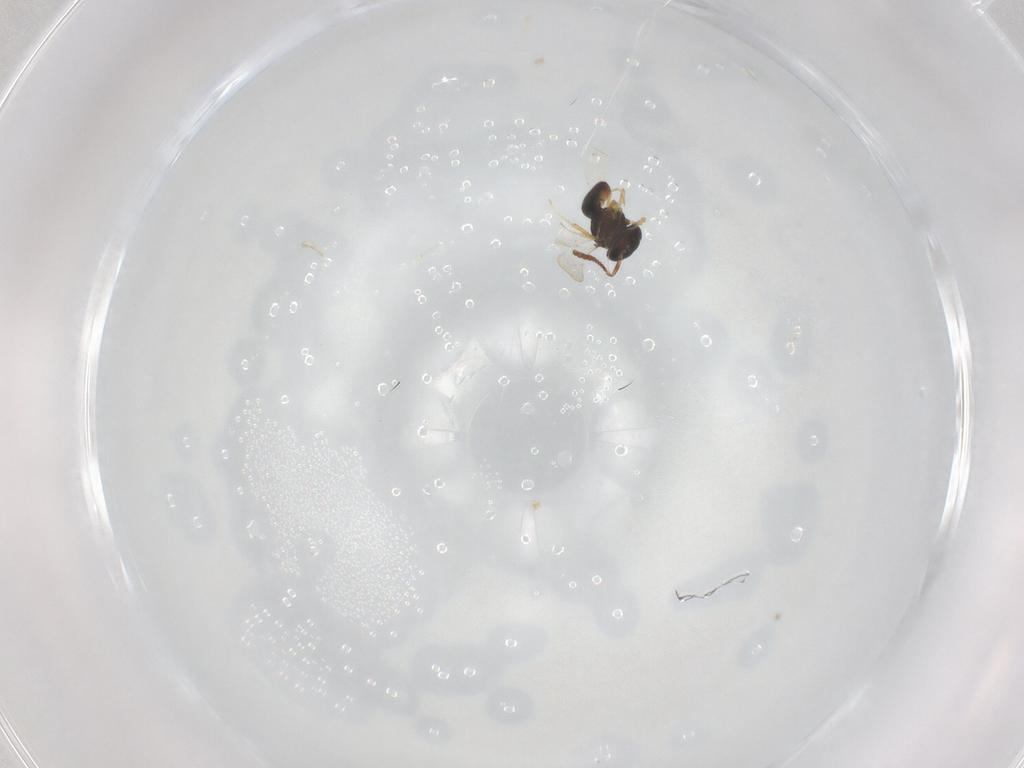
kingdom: Animalia
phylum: Arthropoda
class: Insecta
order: Hymenoptera
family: Scelionidae
